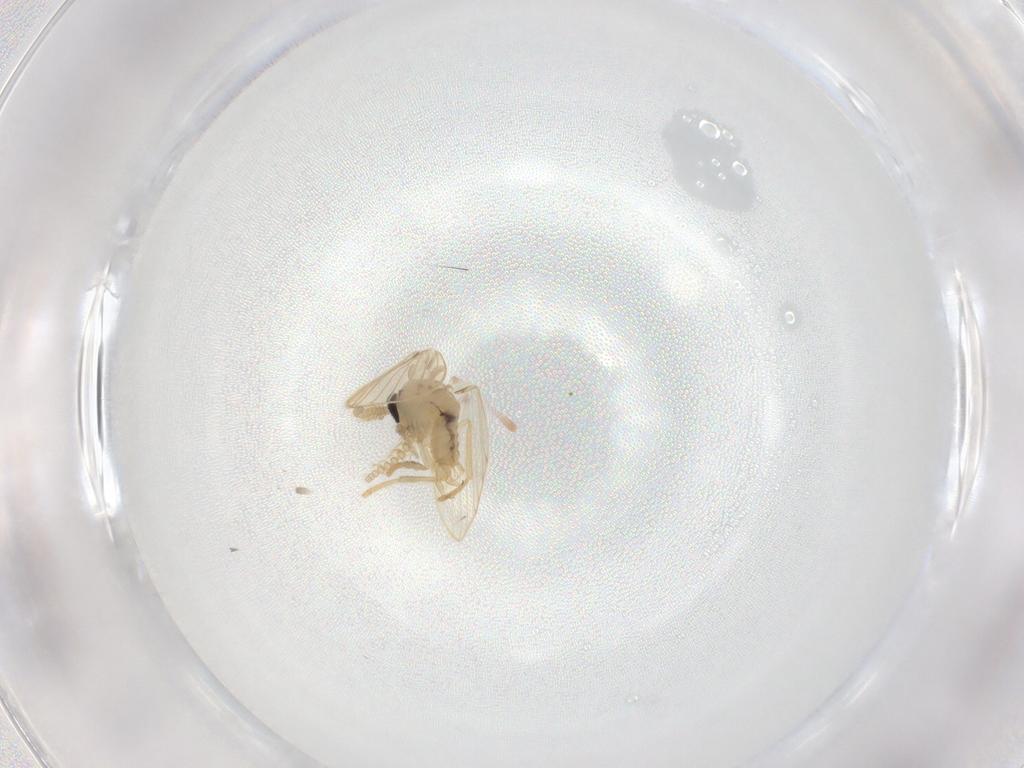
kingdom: Animalia
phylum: Arthropoda
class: Insecta
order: Diptera
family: Psychodidae
